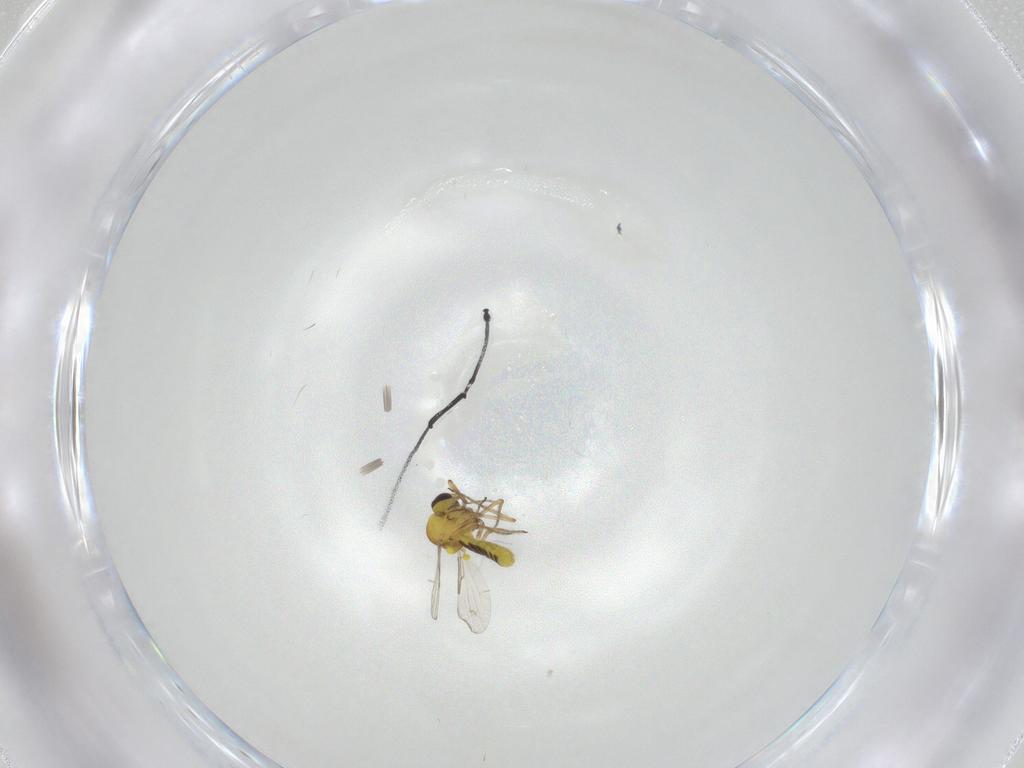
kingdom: Animalia
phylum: Arthropoda
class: Insecta
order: Diptera
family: Ceratopogonidae
